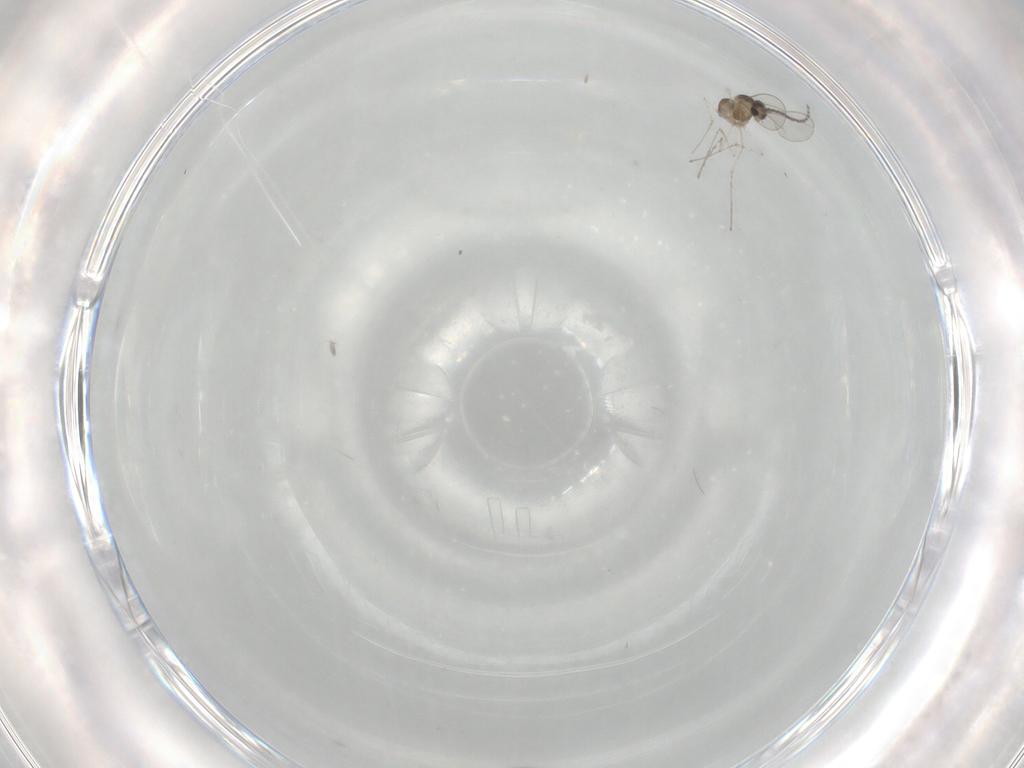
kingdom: Animalia
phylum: Arthropoda
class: Insecta
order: Diptera
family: Cecidomyiidae
